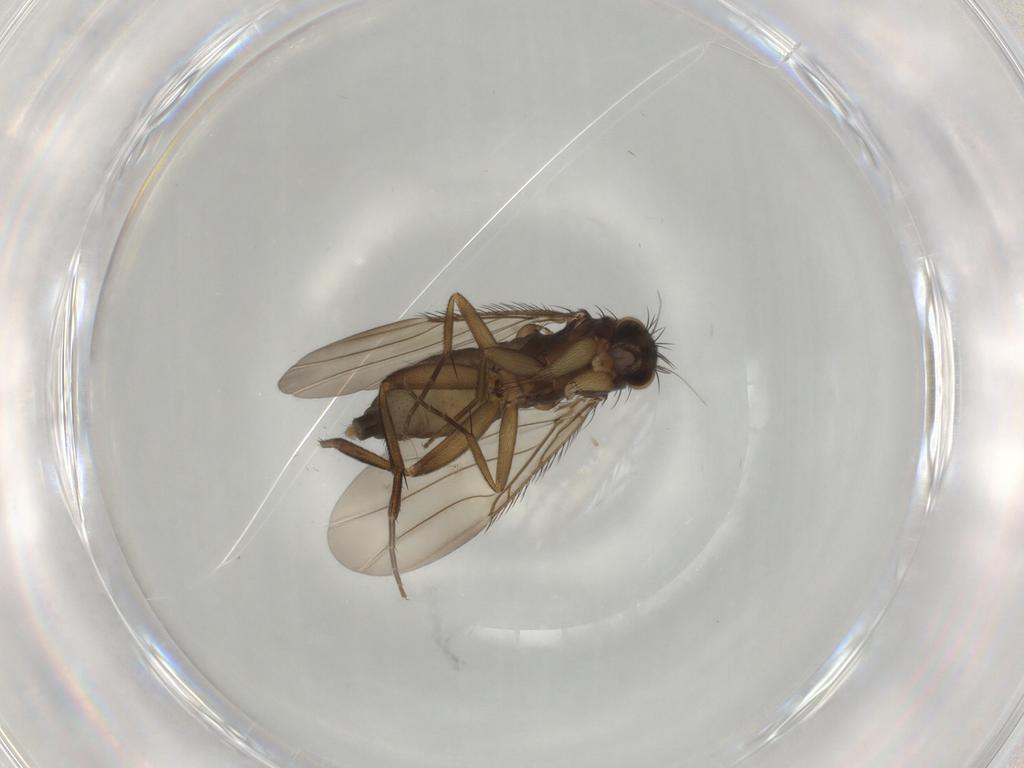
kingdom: Animalia
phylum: Arthropoda
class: Insecta
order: Diptera
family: Phoridae
